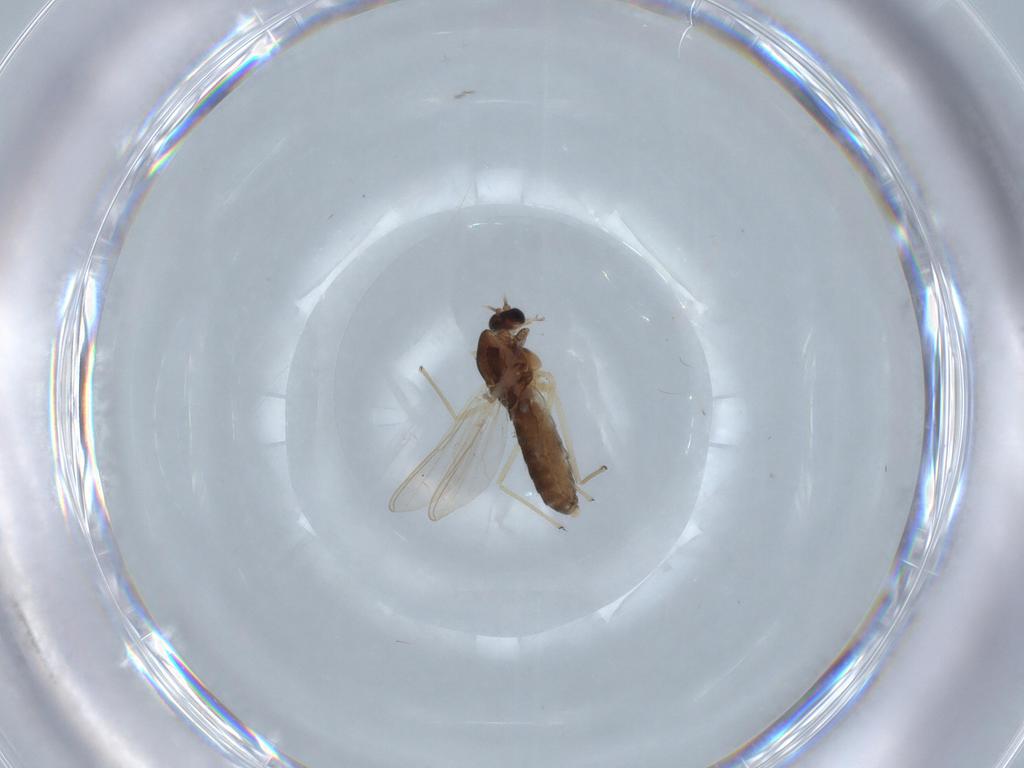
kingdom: Animalia
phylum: Arthropoda
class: Insecta
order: Diptera
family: Chironomidae
